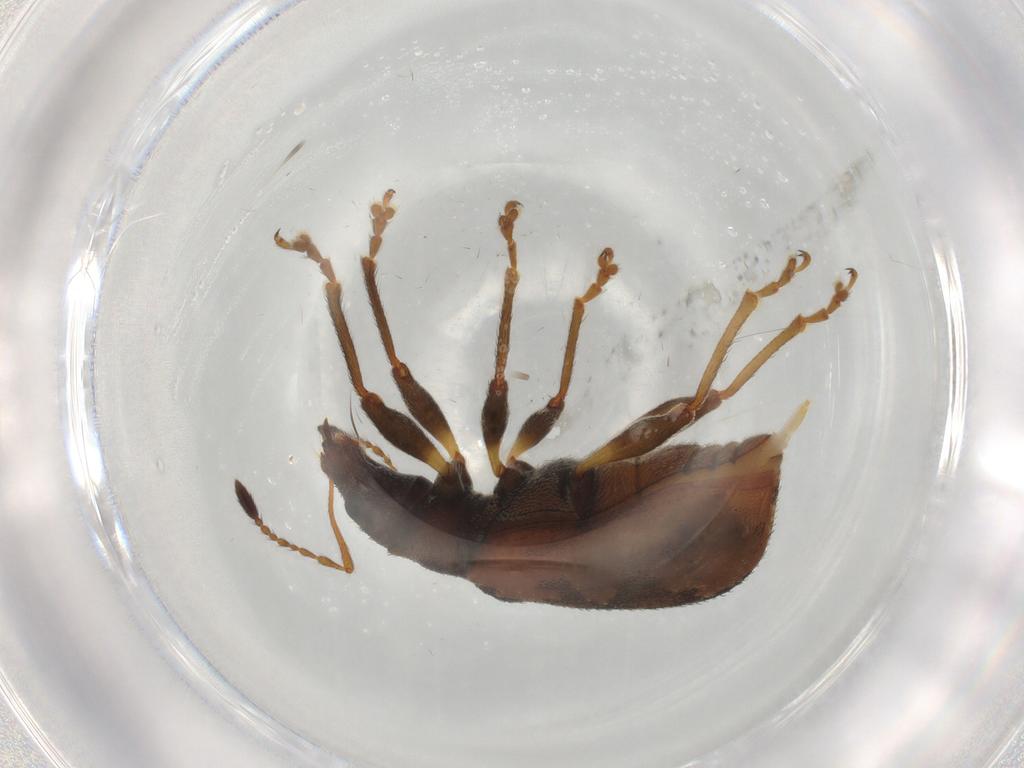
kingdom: Animalia
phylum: Arthropoda
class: Insecta
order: Coleoptera
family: Curculionidae
